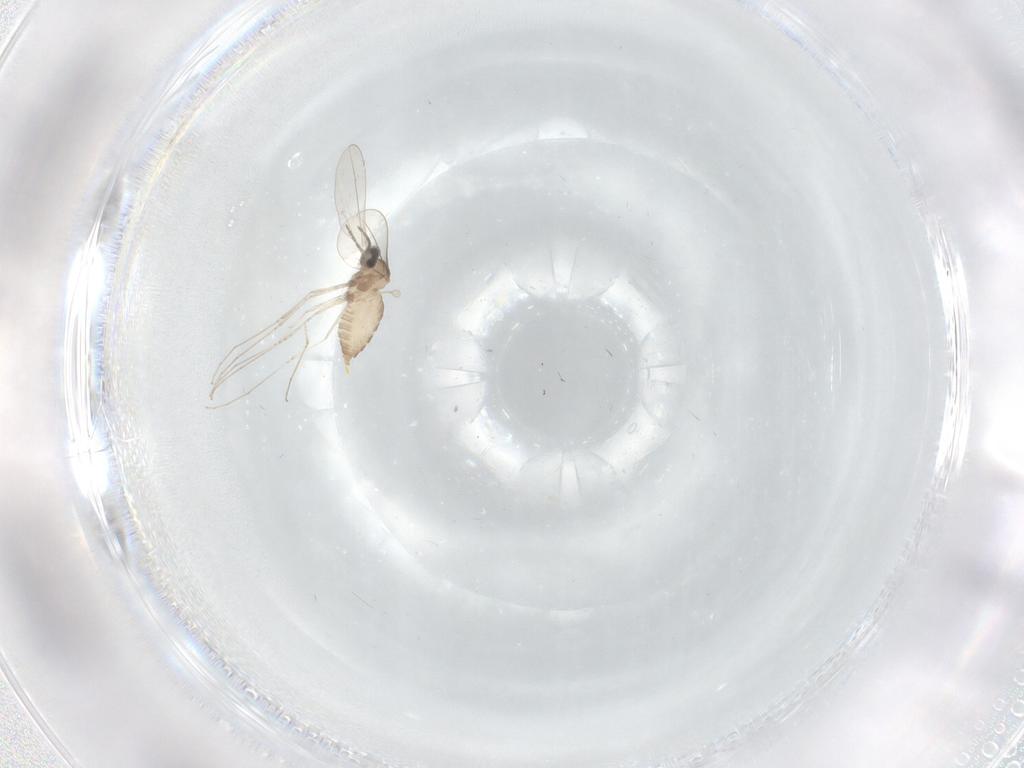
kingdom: Animalia
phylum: Arthropoda
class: Insecta
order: Diptera
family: Cecidomyiidae
